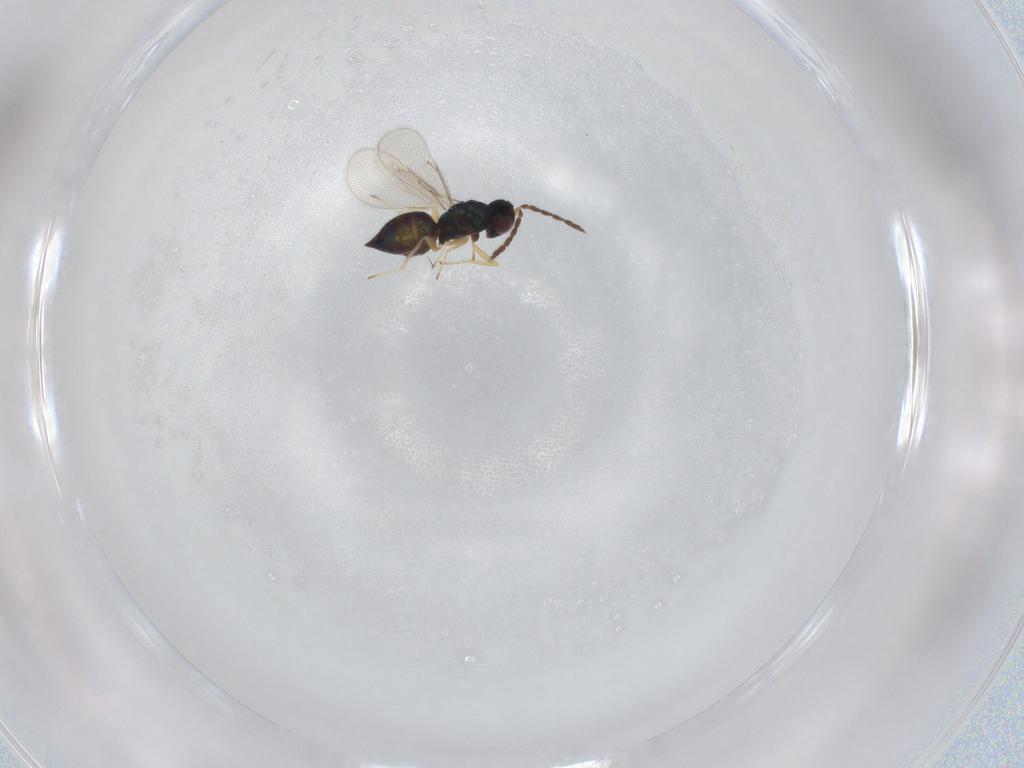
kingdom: Animalia
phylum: Arthropoda
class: Insecta
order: Hymenoptera
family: Eulophidae
